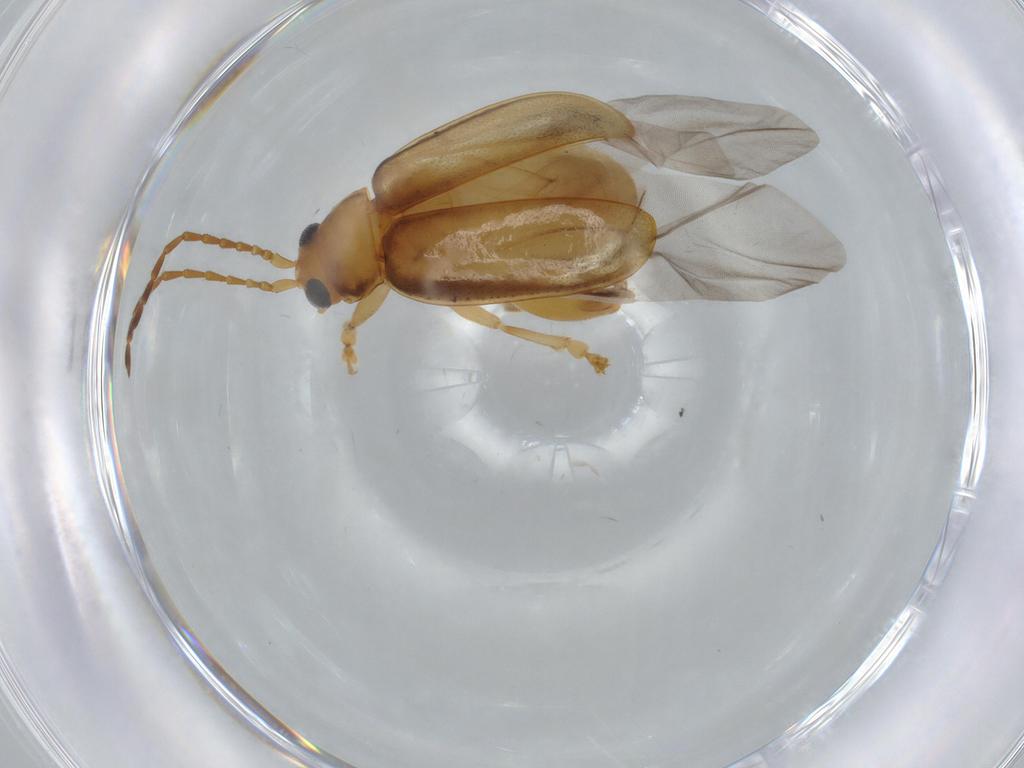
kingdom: Animalia
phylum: Arthropoda
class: Insecta
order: Coleoptera
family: Chrysomelidae
